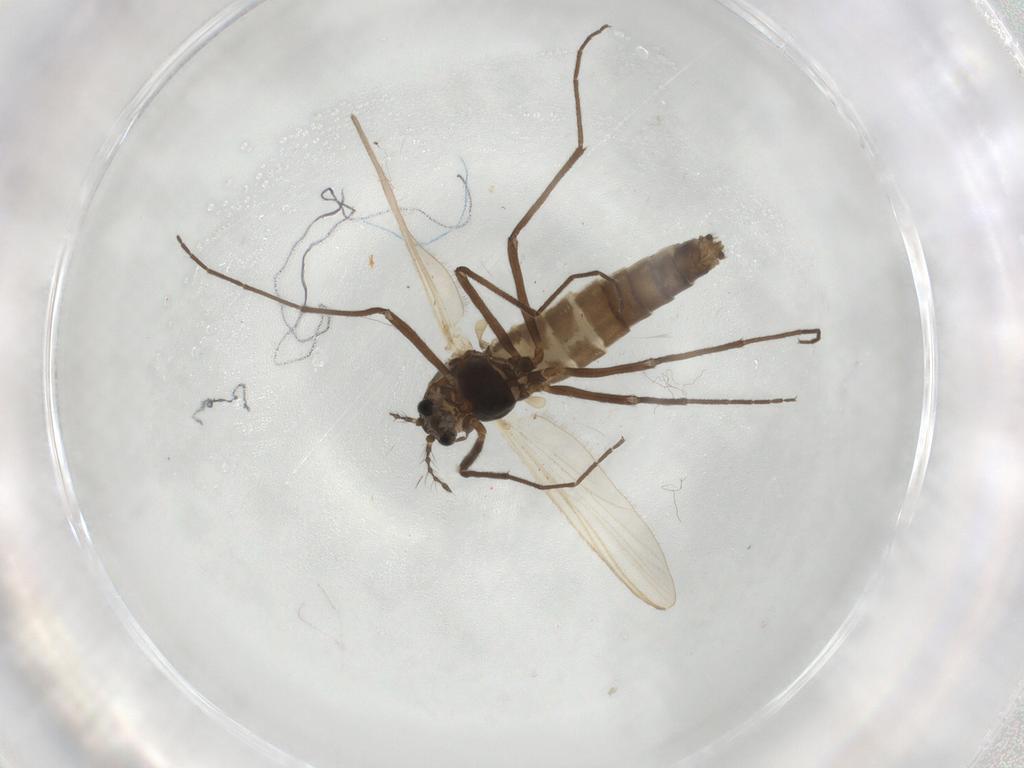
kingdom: Animalia
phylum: Arthropoda
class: Insecta
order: Diptera
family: Chironomidae
